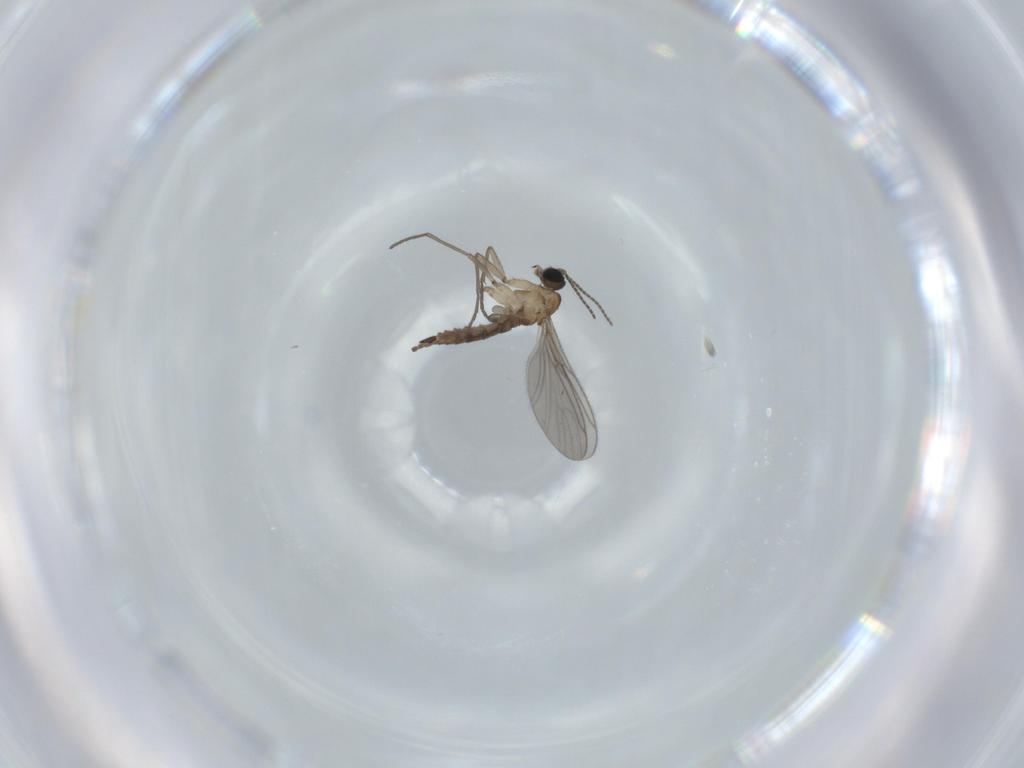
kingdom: Animalia
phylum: Arthropoda
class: Insecta
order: Diptera
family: Sciaridae
